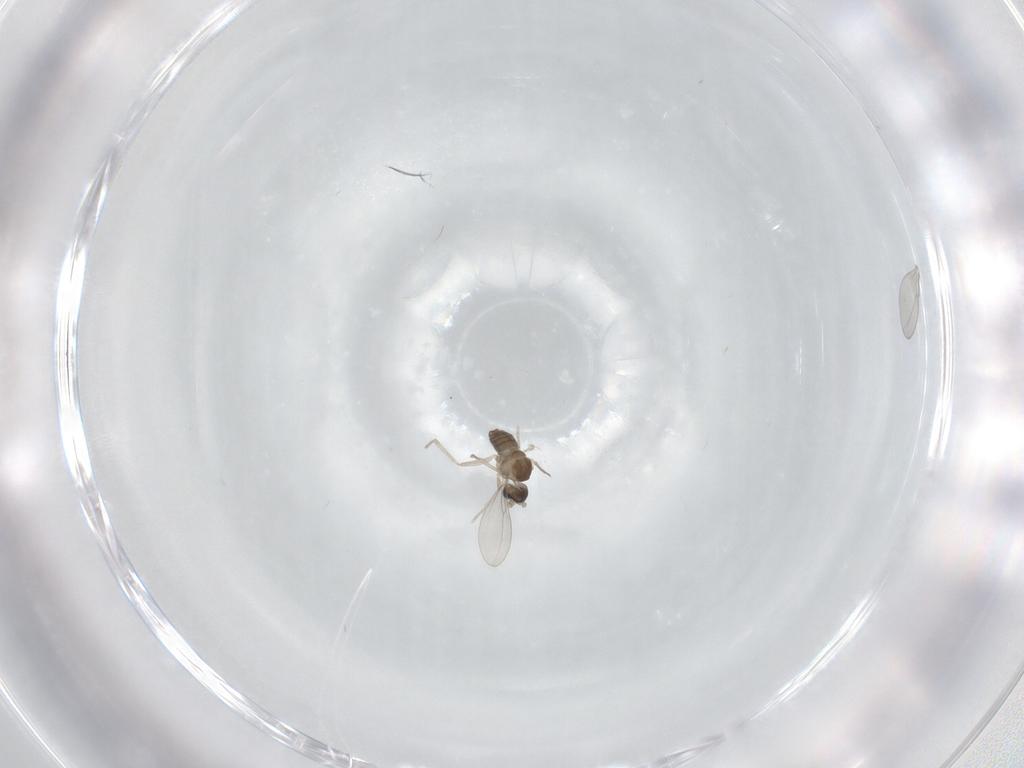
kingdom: Animalia
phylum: Arthropoda
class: Insecta
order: Diptera
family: Cecidomyiidae
